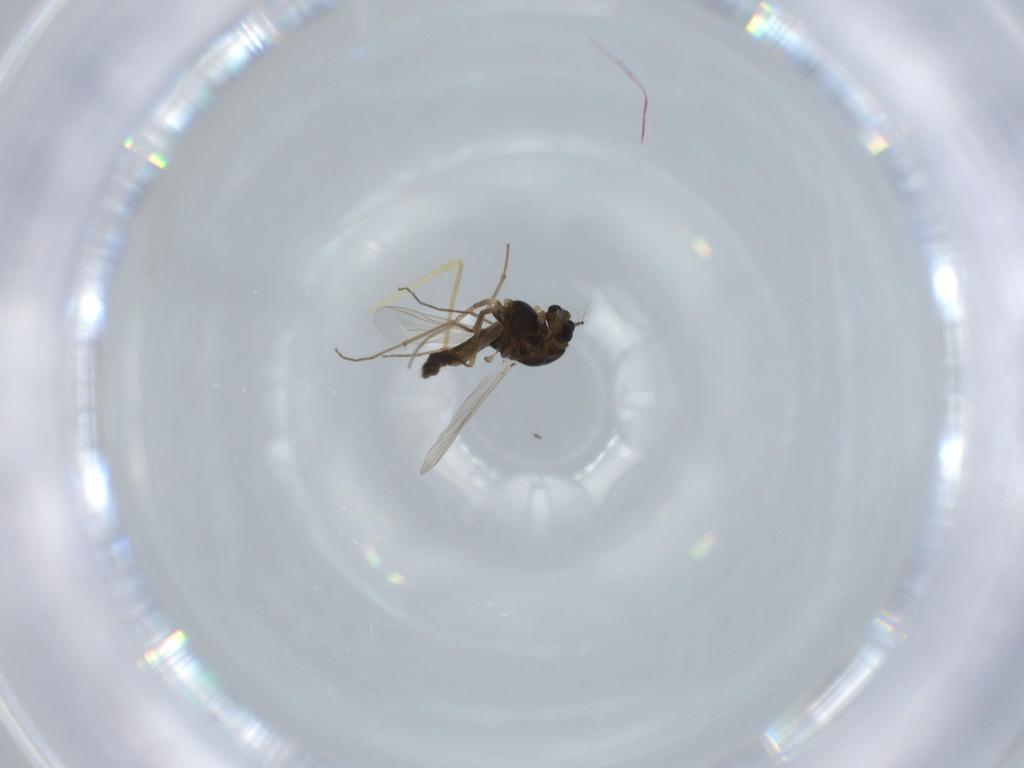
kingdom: Animalia
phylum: Arthropoda
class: Insecta
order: Diptera
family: Chironomidae
